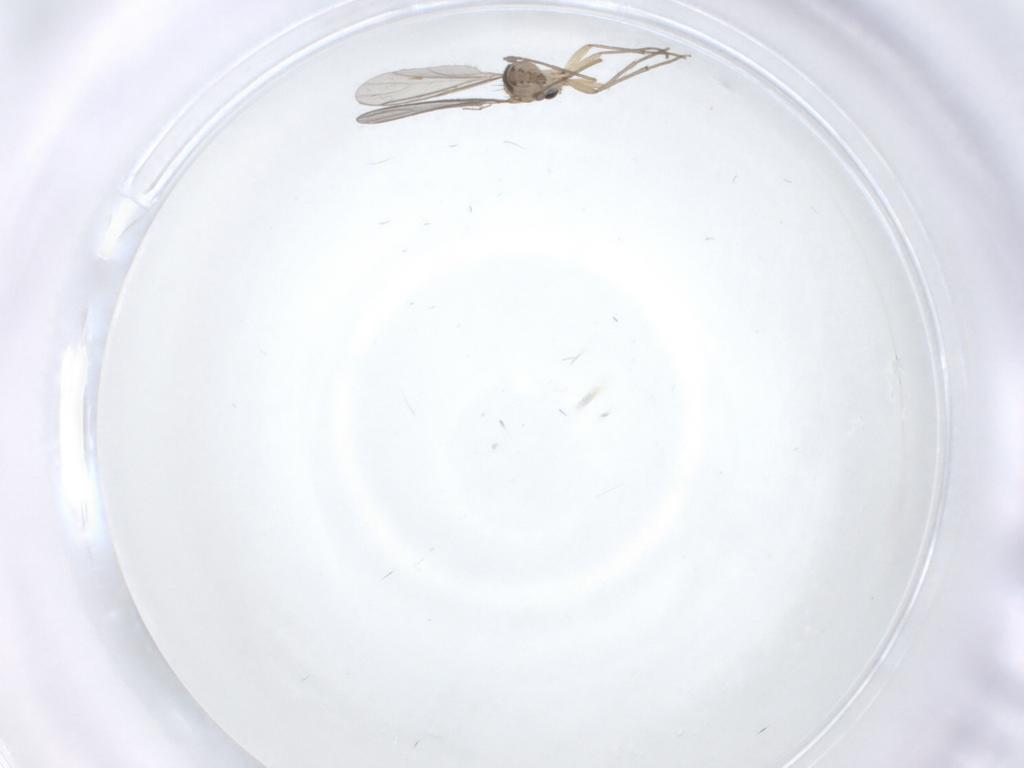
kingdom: Animalia
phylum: Arthropoda
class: Insecta
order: Diptera
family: Sciaridae
